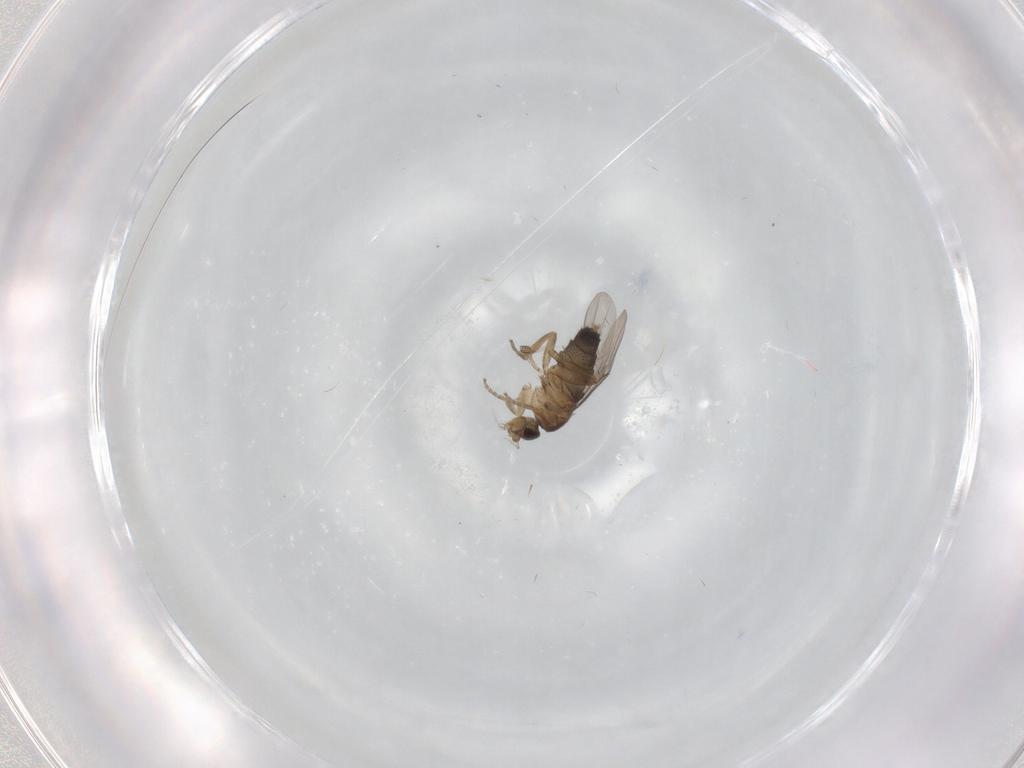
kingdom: Animalia
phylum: Arthropoda
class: Insecta
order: Diptera
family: Phoridae
